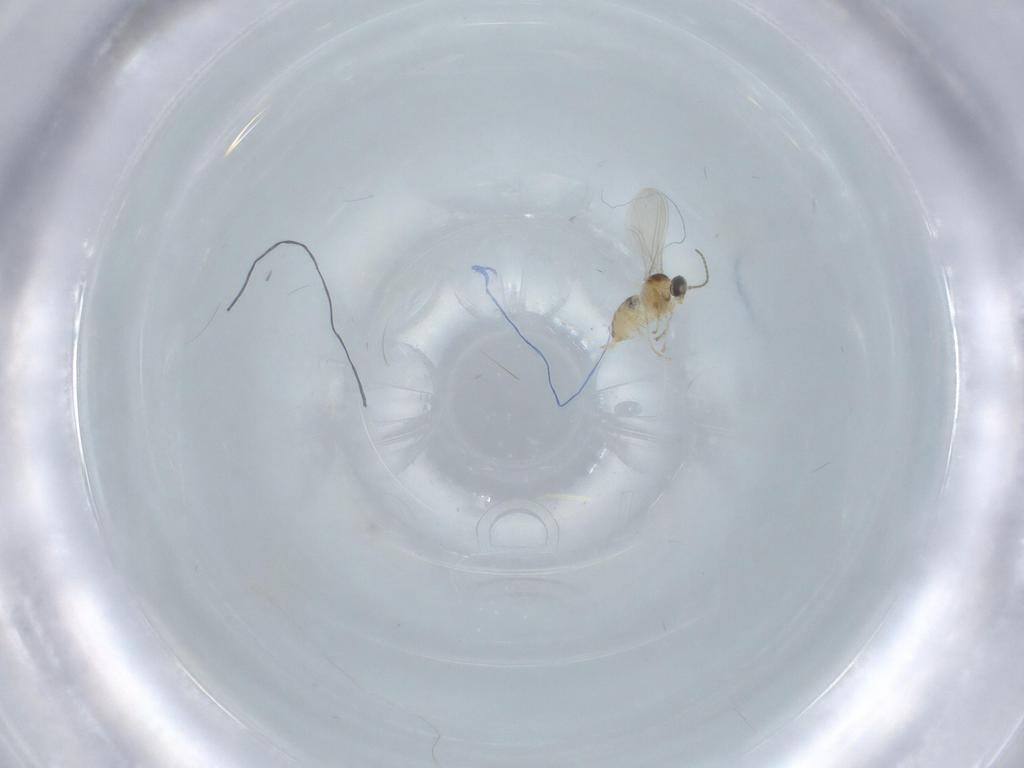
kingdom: Animalia
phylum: Arthropoda
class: Insecta
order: Diptera
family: Cecidomyiidae
